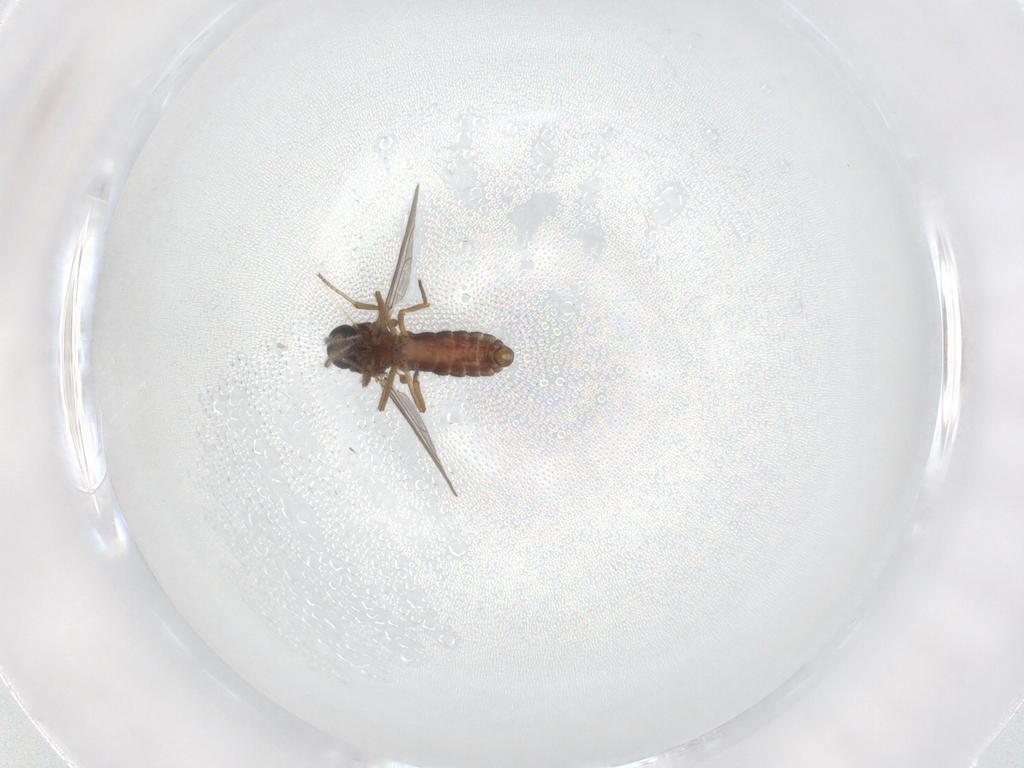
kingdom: Animalia
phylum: Arthropoda
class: Insecta
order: Diptera
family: Ceratopogonidae
